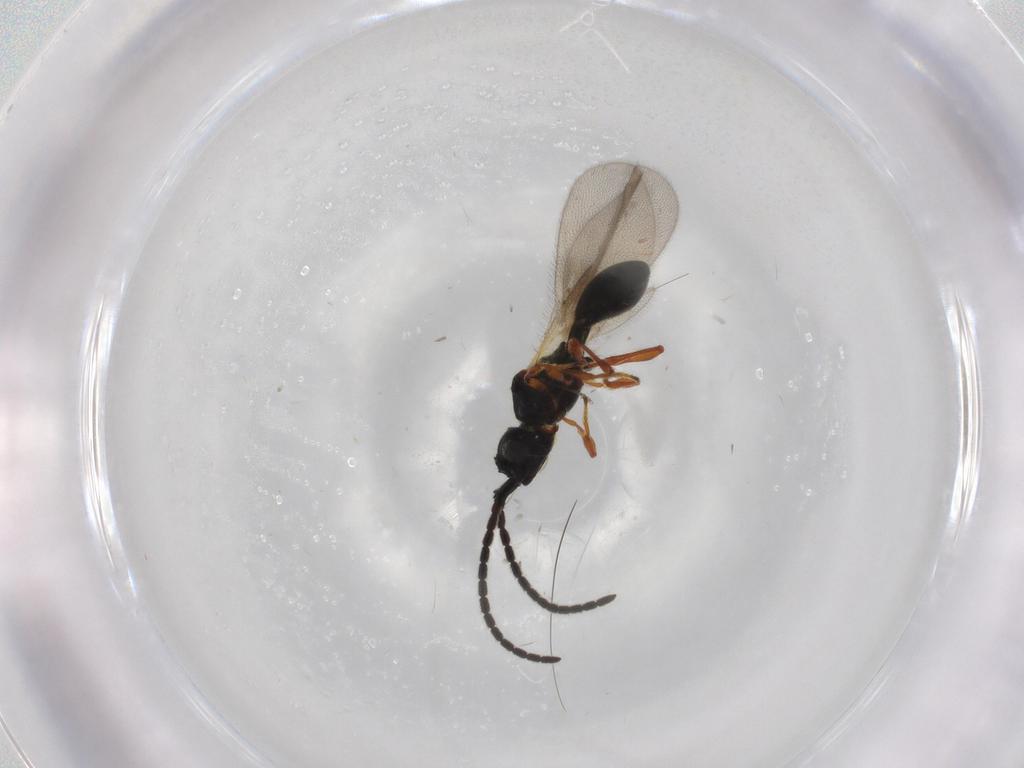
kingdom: Animalia
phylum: Arthropoda
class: Insecta
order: Hymenoptera
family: Diapriidae
